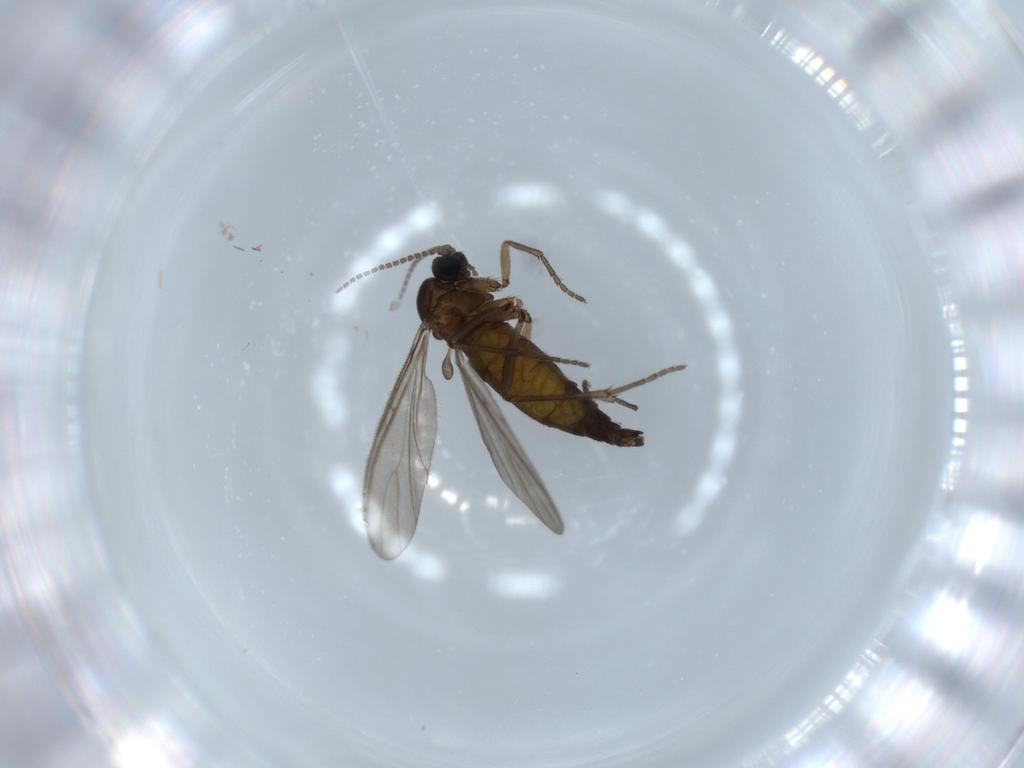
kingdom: Animalia
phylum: Arthropoda
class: Insecta
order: Diptera
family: Sciaridae
